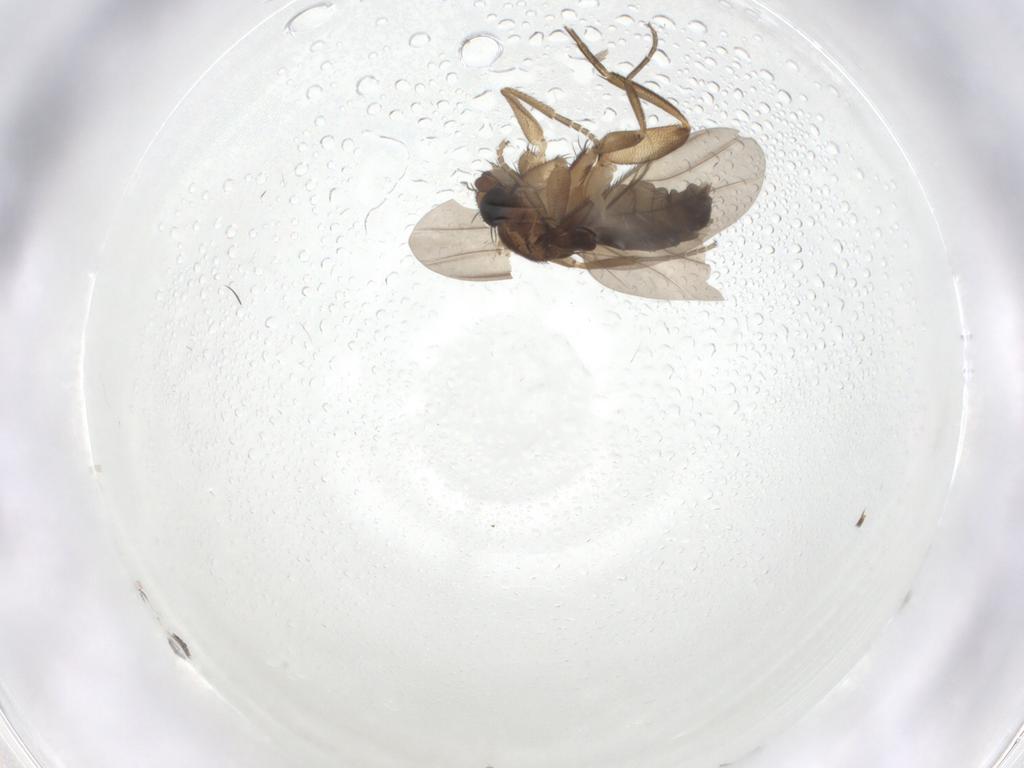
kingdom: Animalia
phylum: Arthropoda
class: Insecta
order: Diptera
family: Phoridae
